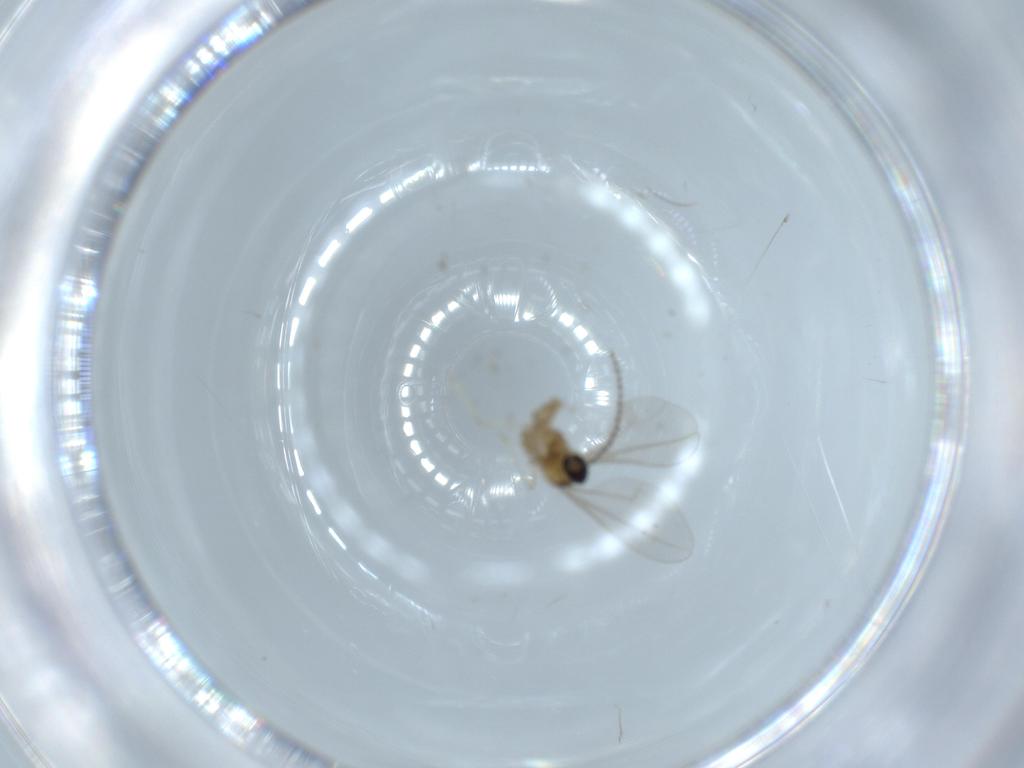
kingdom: Animalia
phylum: Arthropoda
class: Insecta
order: Diptera
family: Cecidomyiidae
